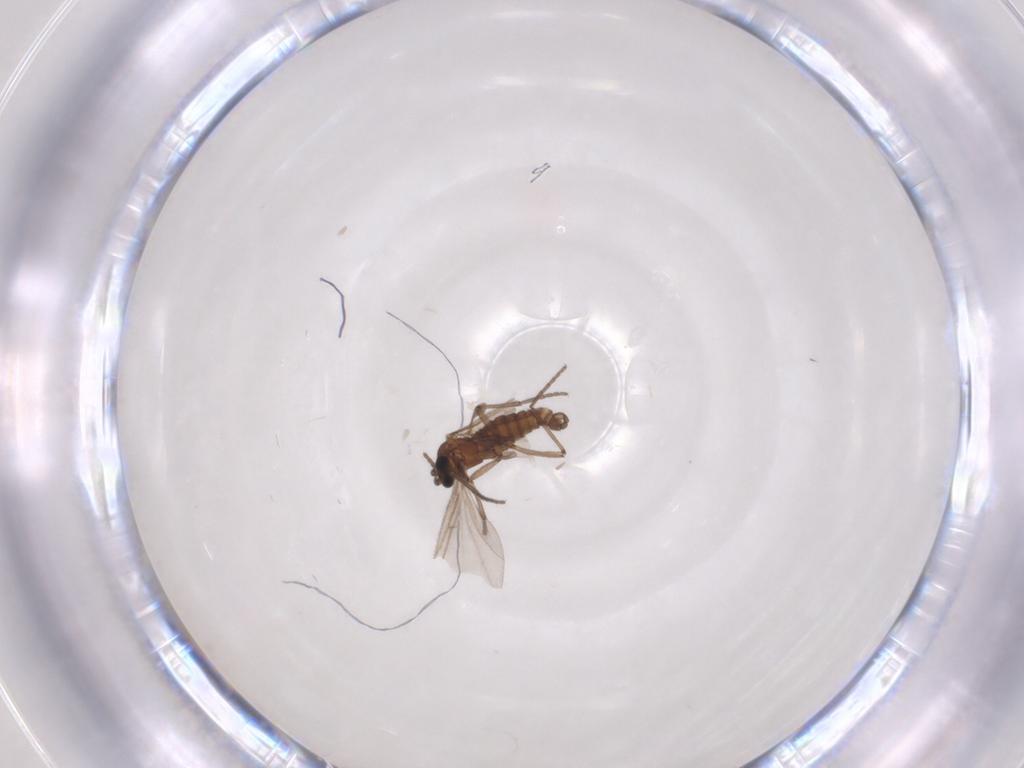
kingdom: Animalia
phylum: Arthropoda
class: Insecta
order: Diptera
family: Sciaridae
